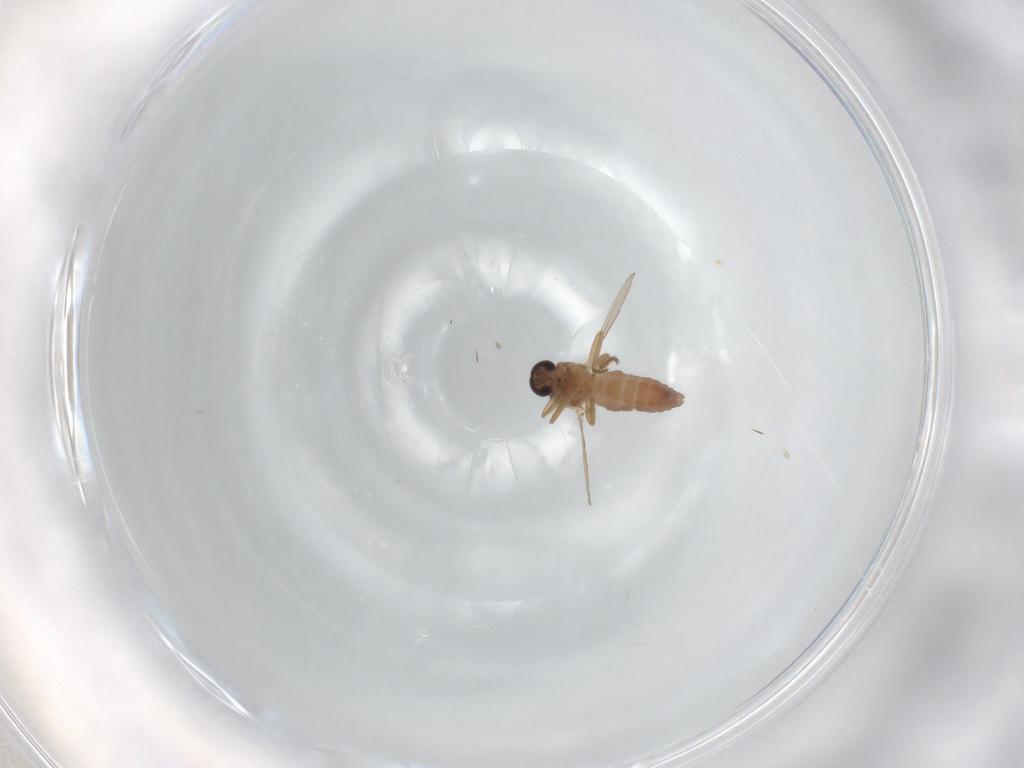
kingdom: Animalia
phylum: Arthropoda
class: Insecta
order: Diptera
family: Ceratopogonidae
